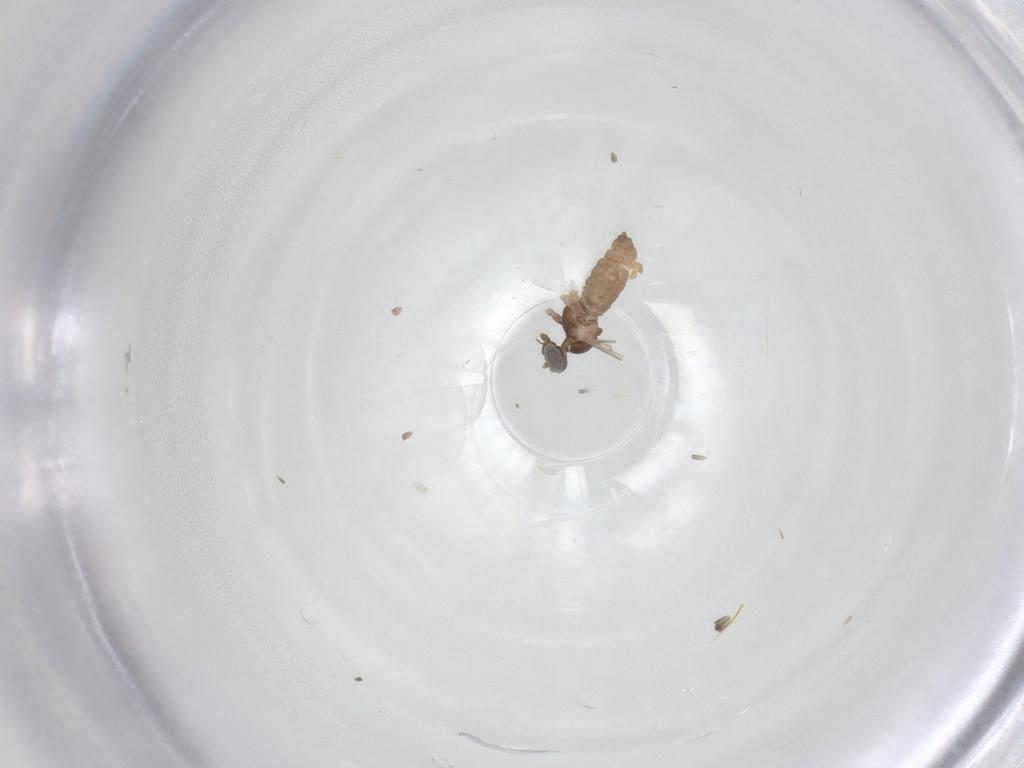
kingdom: Animalia
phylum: Arthropoda
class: Insecta
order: Diptera
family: Cecidomyiidae
